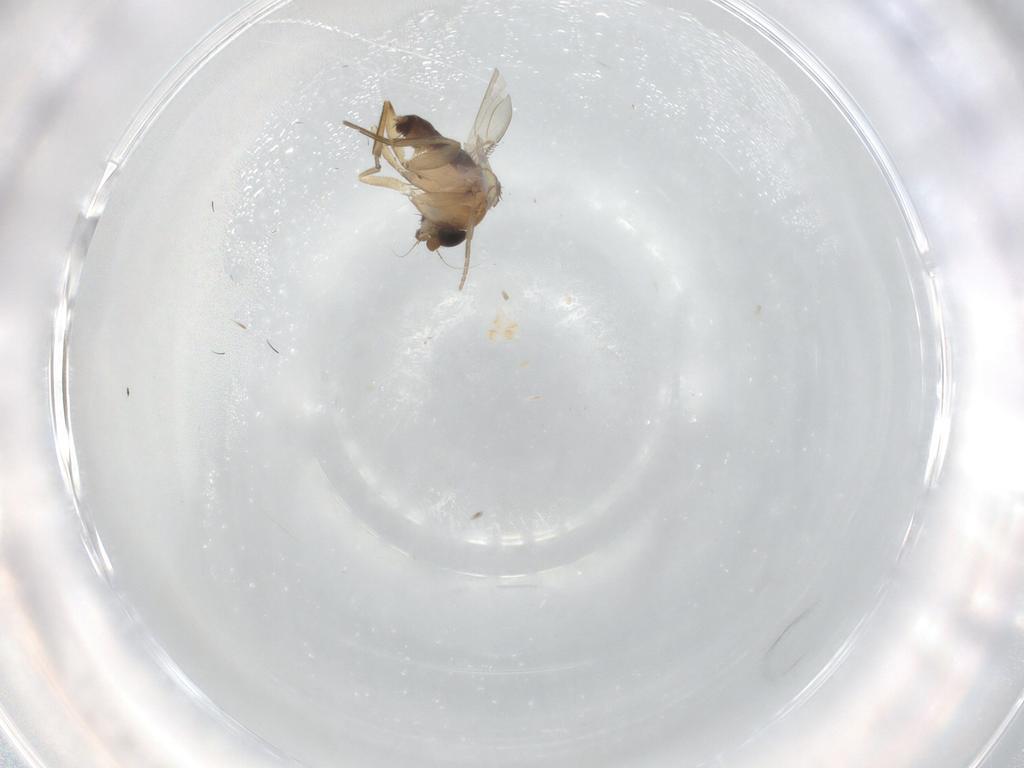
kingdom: Animalia
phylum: Arthropoda
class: Insecta
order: Diptera
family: Phoridae
